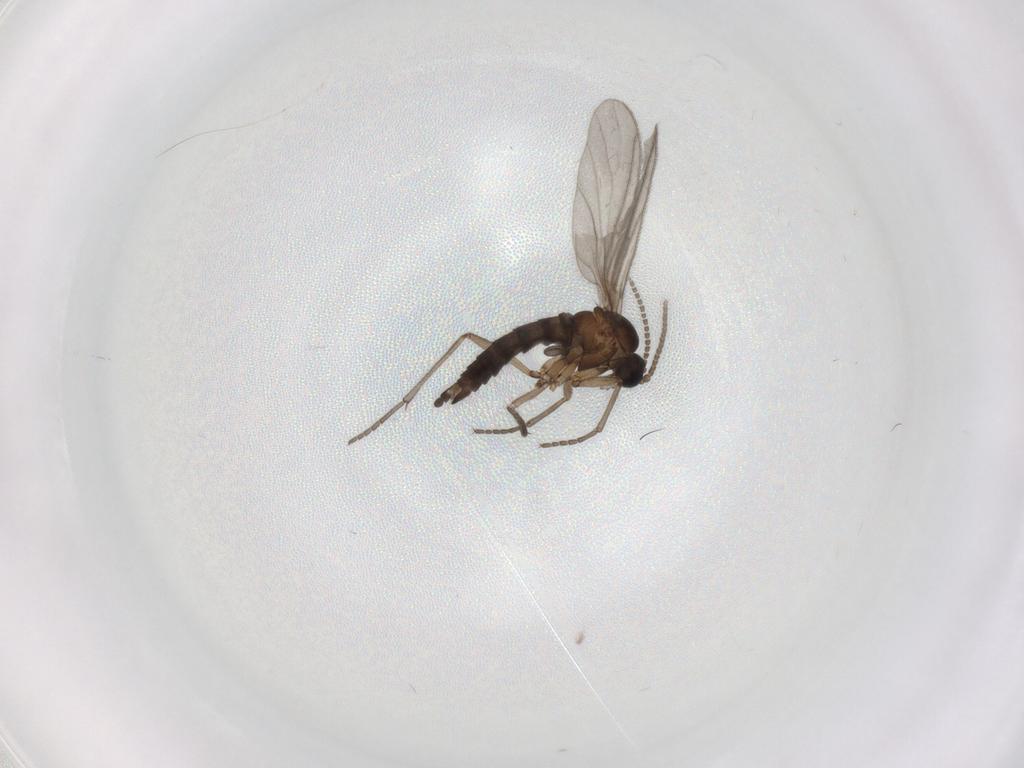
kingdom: Animalia
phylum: Arthropoda
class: Insecta
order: Diptera
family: Sciaridae
